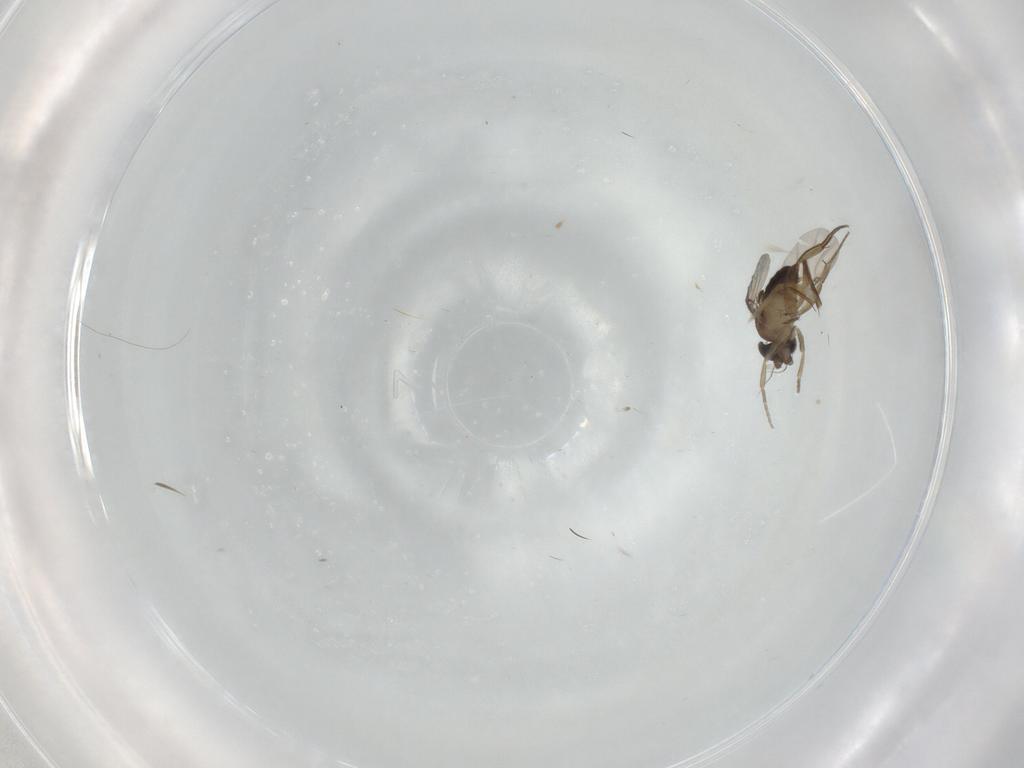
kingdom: Animalia
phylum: Arthropoda
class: Insecta
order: Diptera
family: Phoridae
